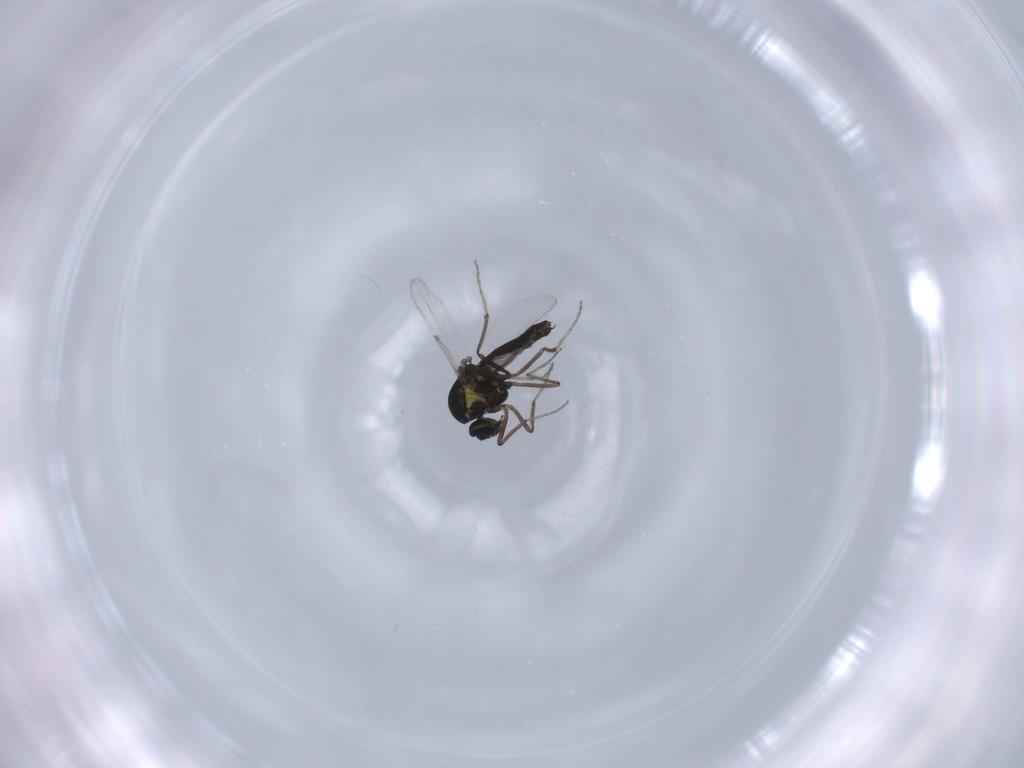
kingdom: Animalia
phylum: Arthropoda
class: Insecta
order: Diptera
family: Ceratopogonidae
